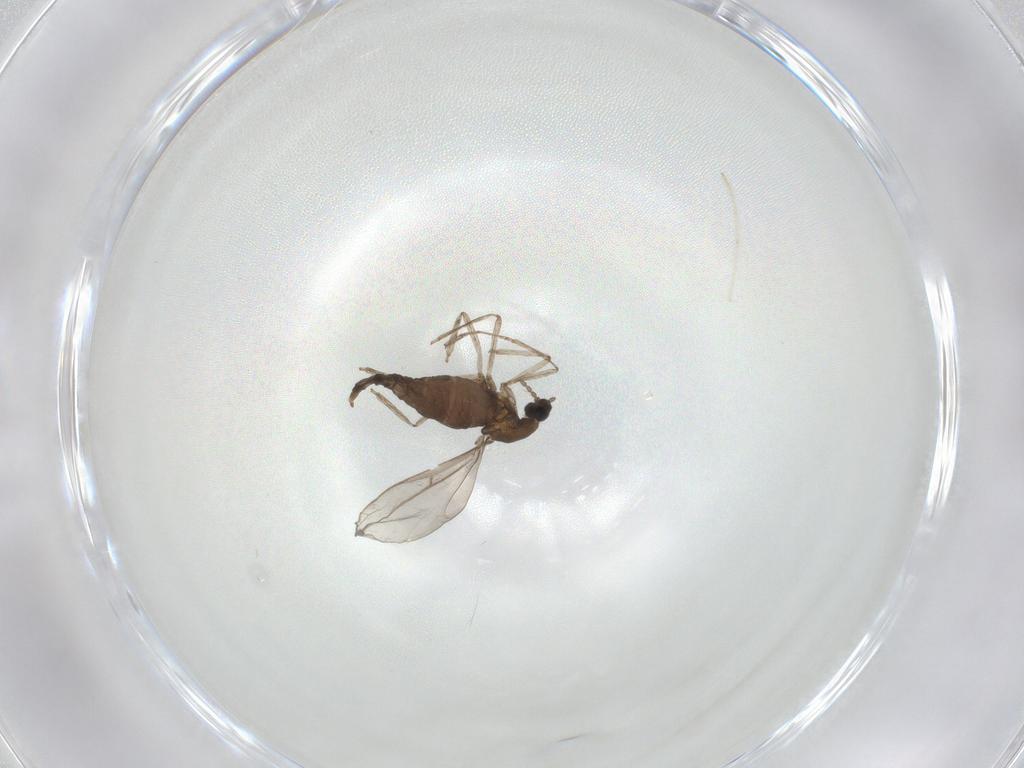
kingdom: Animalia
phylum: Arthropoda
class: Insecta
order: Diptera
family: Cecidomyiidae
